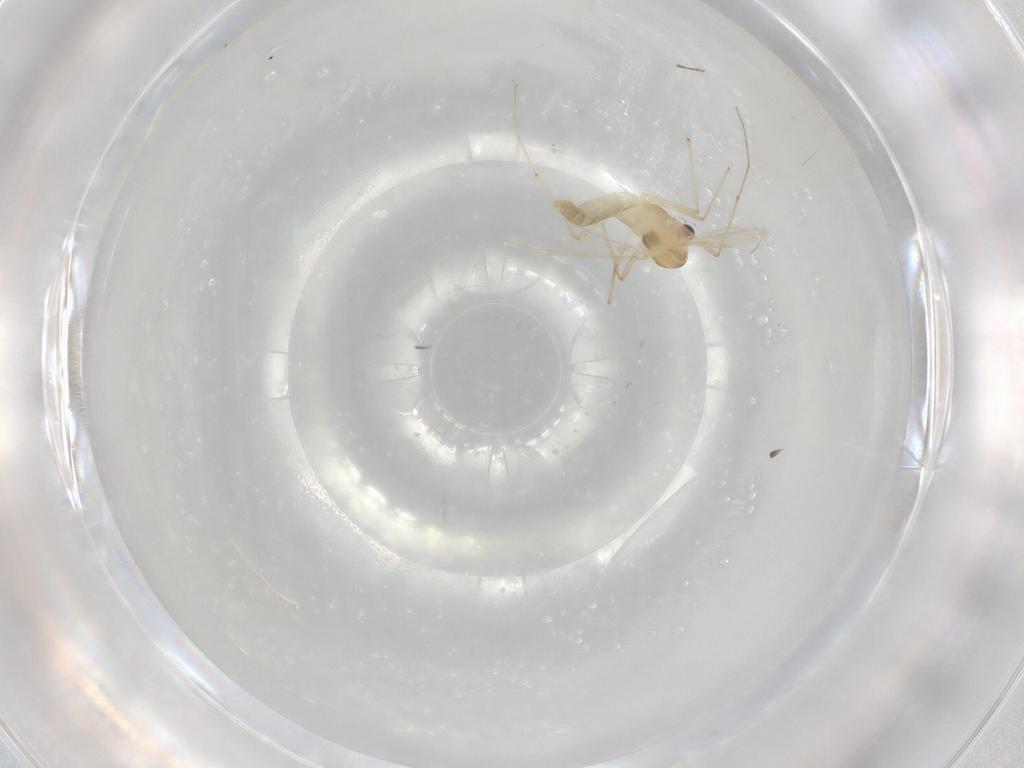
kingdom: Animalia
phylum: Arthropoda
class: Insecta
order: Diptera
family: Chironomidae
